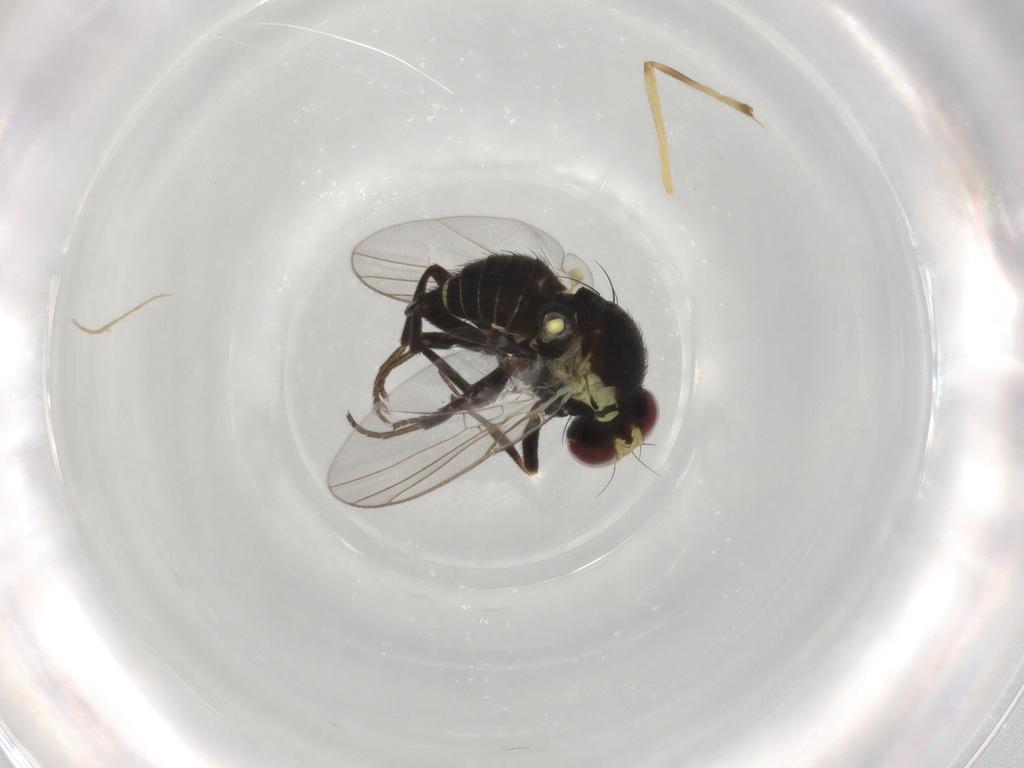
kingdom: Animalia
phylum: Arthropoda
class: Insecta
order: Diptera
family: Agromyzidae
